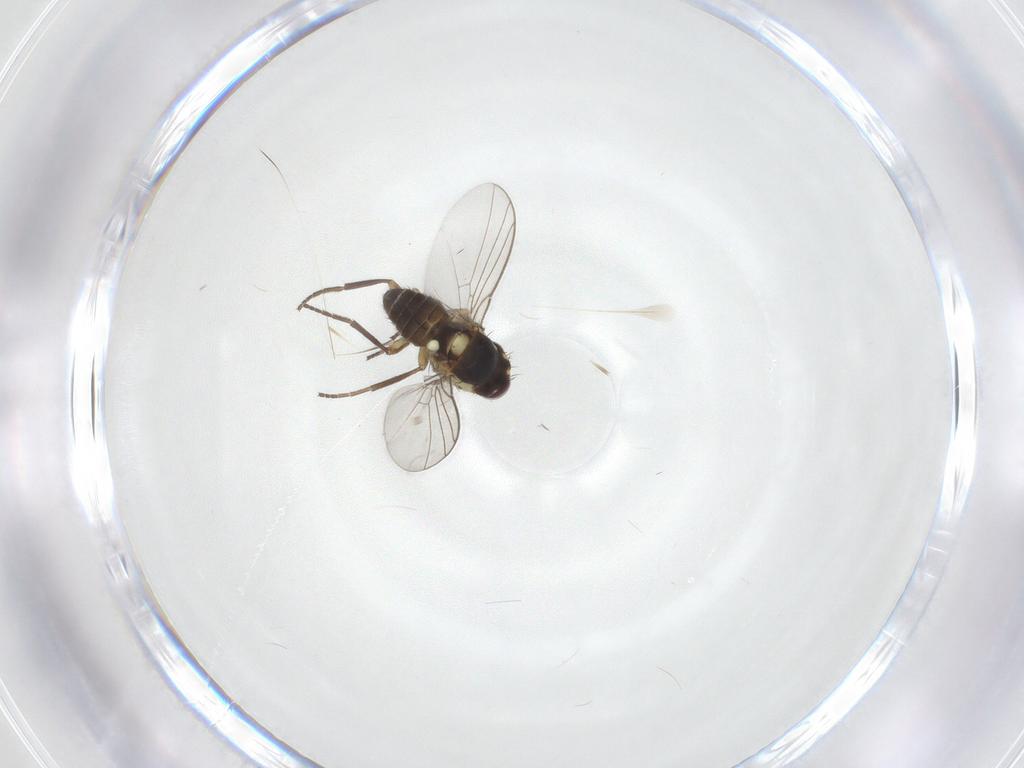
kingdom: Animalia
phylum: Arthropoda
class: Insecta
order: Diptera
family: Agromyzidae
